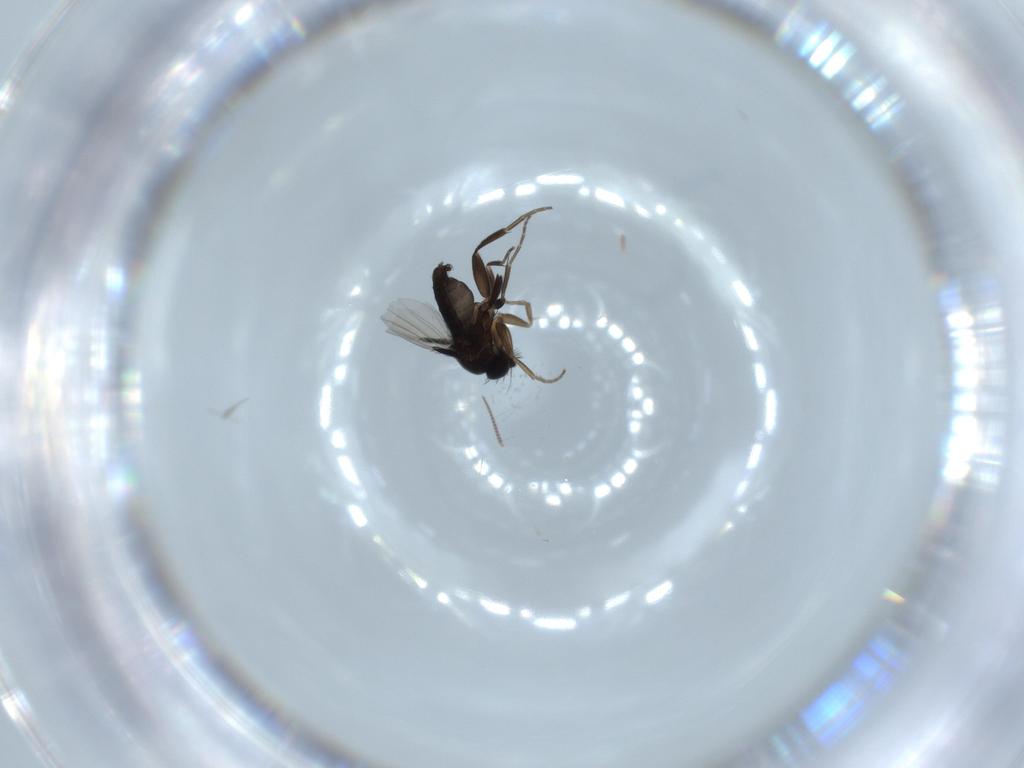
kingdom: Animalia
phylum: Arthropoda
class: Insecta
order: Diptera
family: Phoridae
